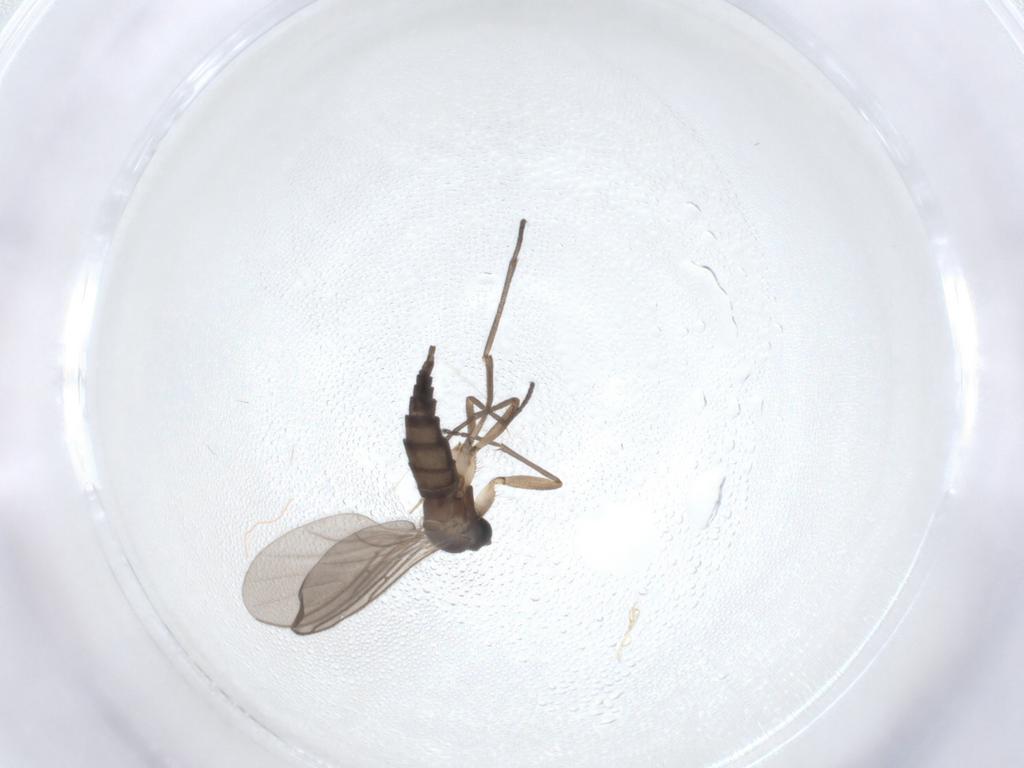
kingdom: Animalia
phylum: Arthropoda
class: Insecta
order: Diptera
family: Sciaridae
